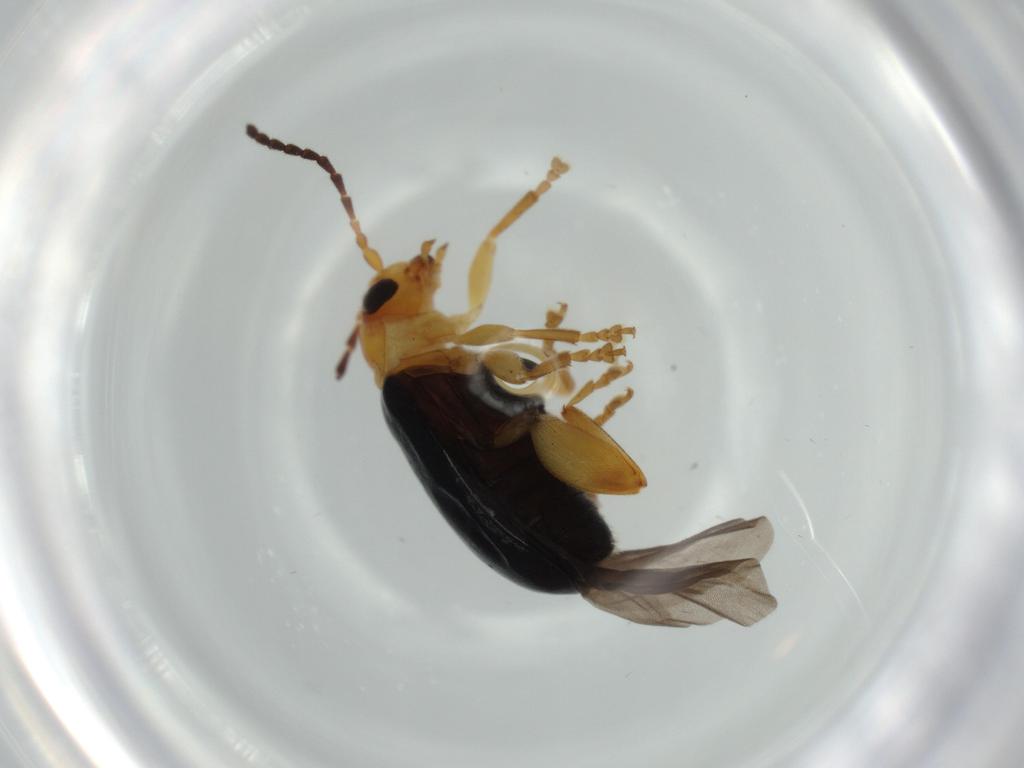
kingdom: Animalia
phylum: Arthropoda
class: Insecta
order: Coleoptera
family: Chrysomelidae
